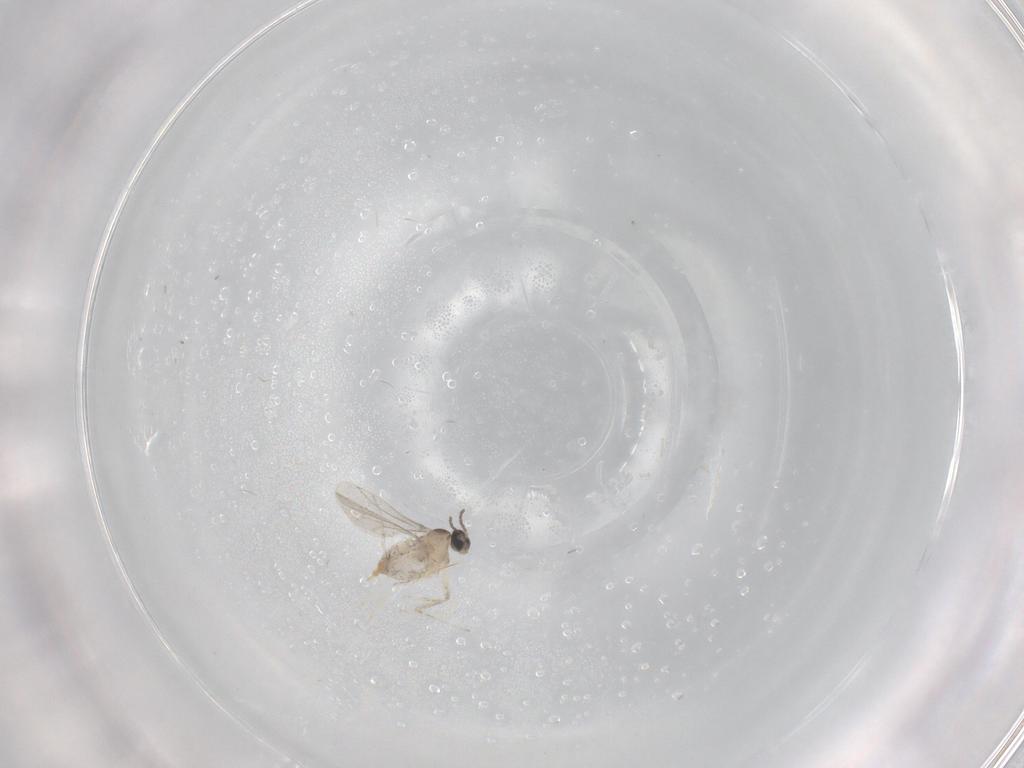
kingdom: Animalia
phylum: Arthropoda
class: Insecta
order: Diptera
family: Cecidomyiidae
